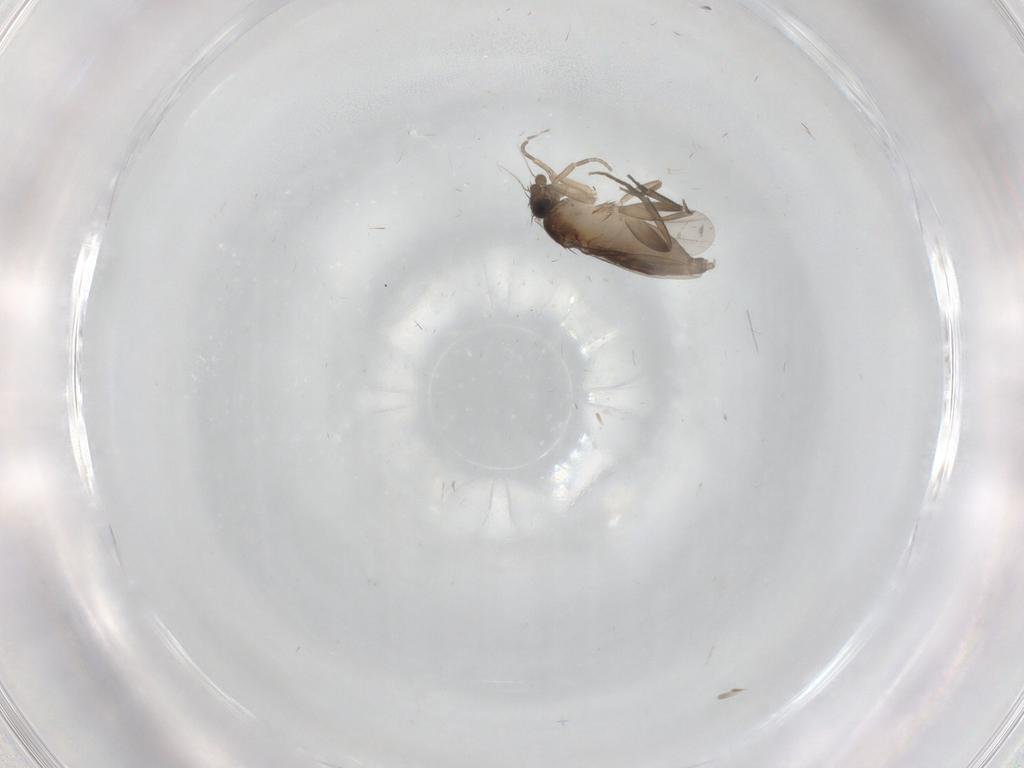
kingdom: Animalia
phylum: Arthropoda
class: Insecta
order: Diptera
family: Phoridae
